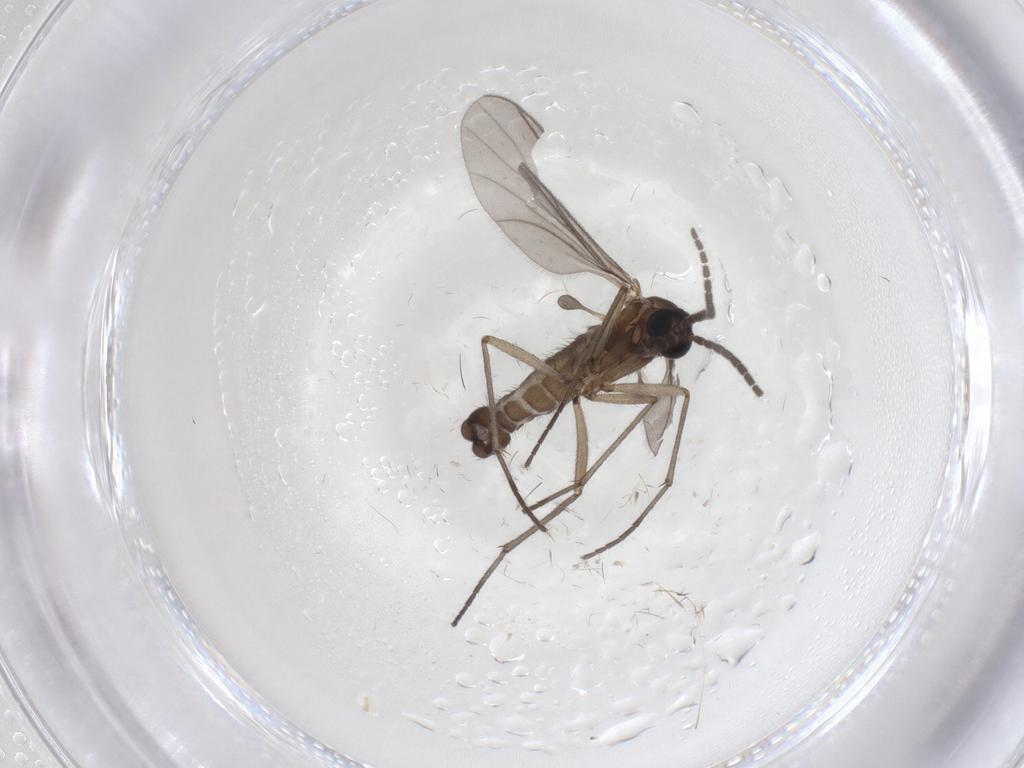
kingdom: Animalia
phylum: Arthropoda
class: Insecta
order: Diptera
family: Sciaridae
